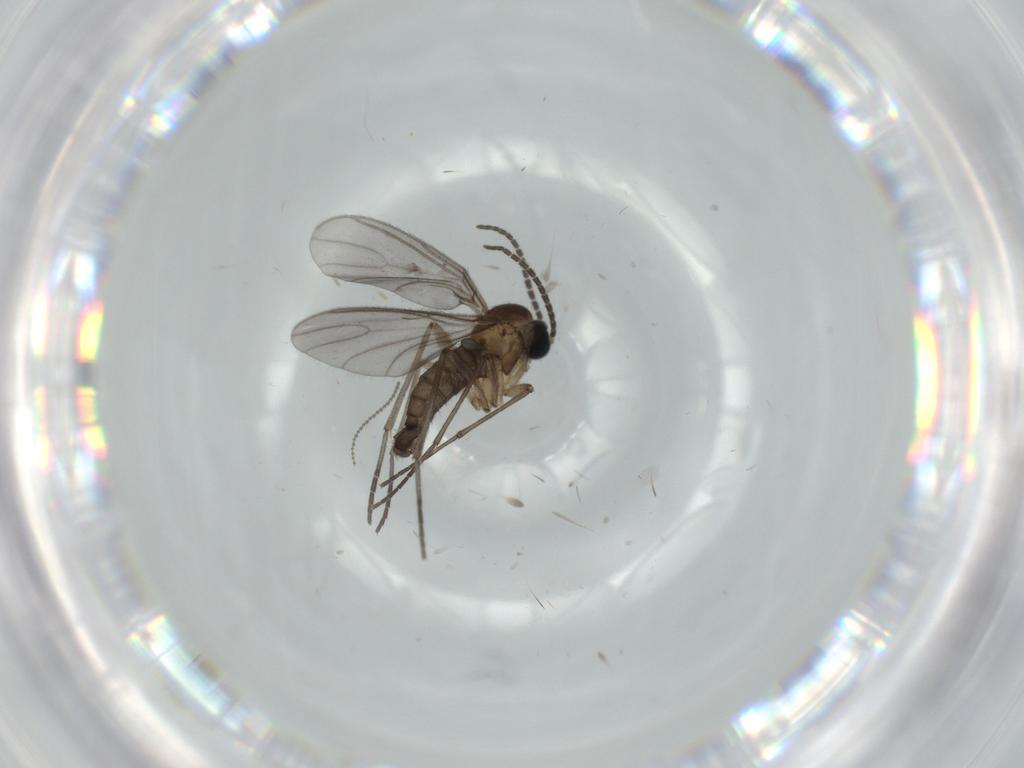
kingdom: Animalia
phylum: Arthropoda
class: Insecta
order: Diptera
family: Sciaridae
